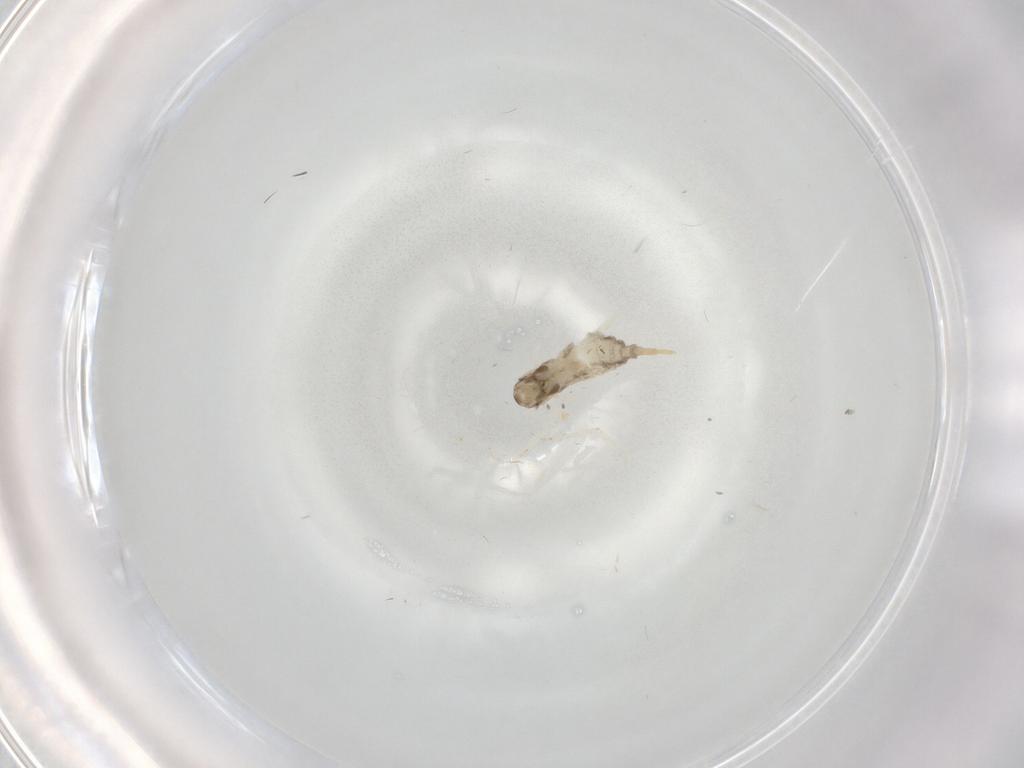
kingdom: Animalia
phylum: Arthropoda
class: Insecta
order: Diptera
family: Chironomidae
